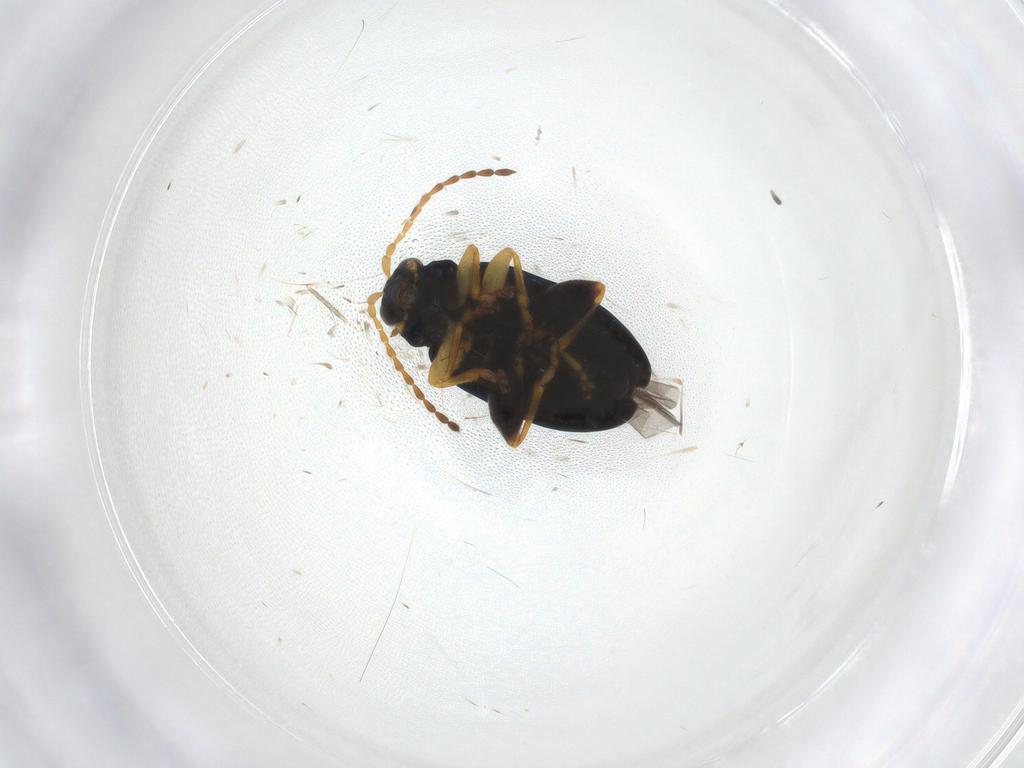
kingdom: Animalia
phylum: Arthropoda
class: Insecta
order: Coleoptera
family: Chrysomelidae
